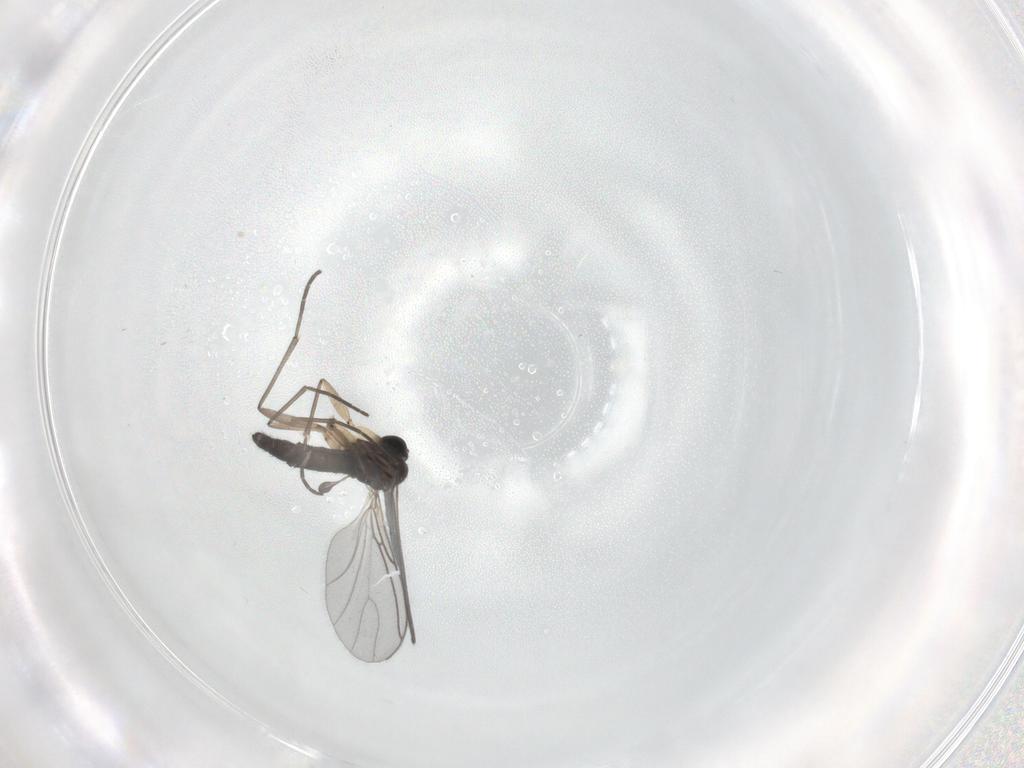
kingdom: Animalia
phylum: Arthropoda
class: Insecta
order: Diptera
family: Sciaridae
